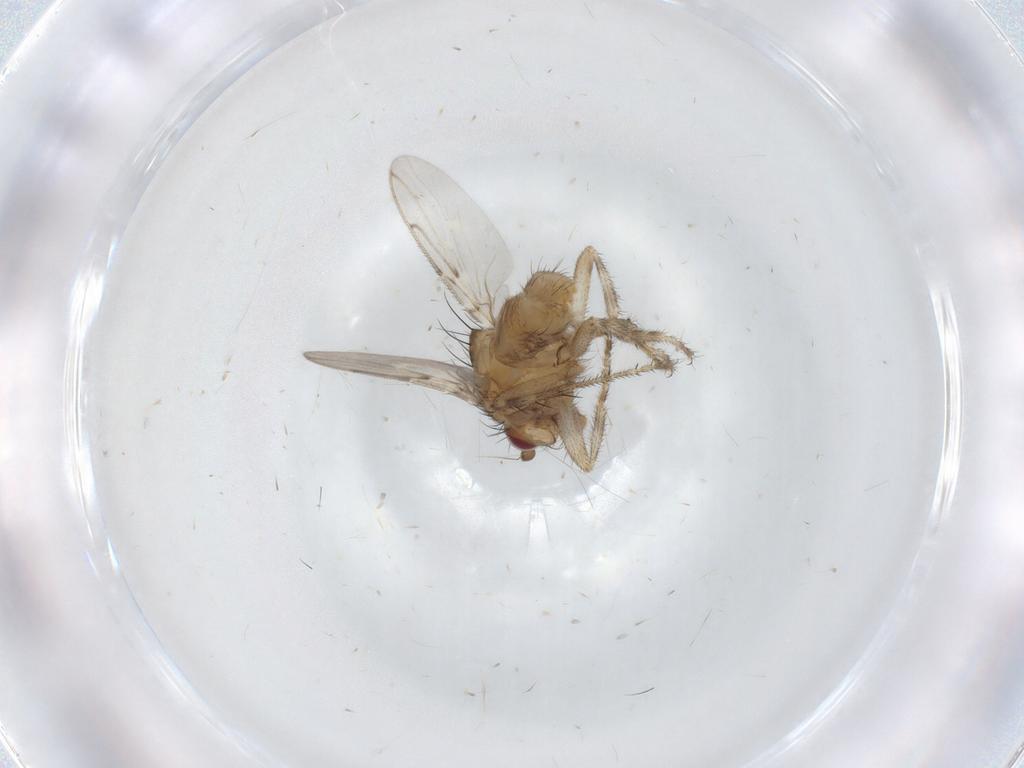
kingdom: Animalia
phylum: Arthropoda
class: Insecta
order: Diptera
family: Sphaeroceridae
